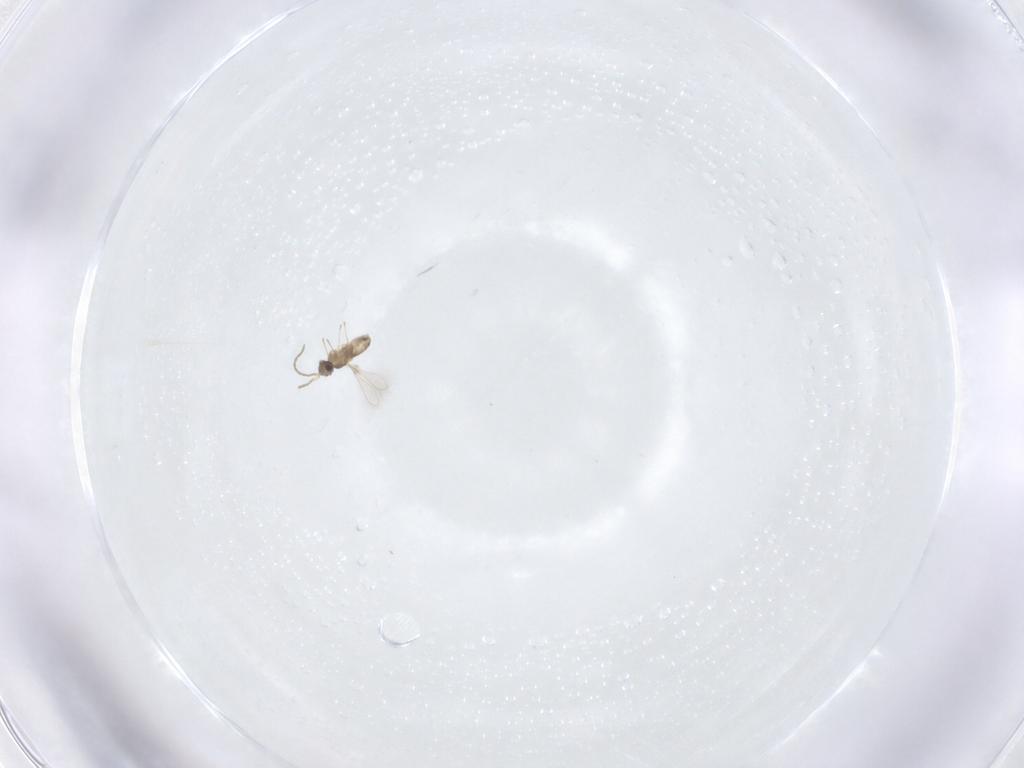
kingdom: Animalia
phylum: Arthropoda
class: Insecta
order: Hymenoptera
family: Mymaridae
